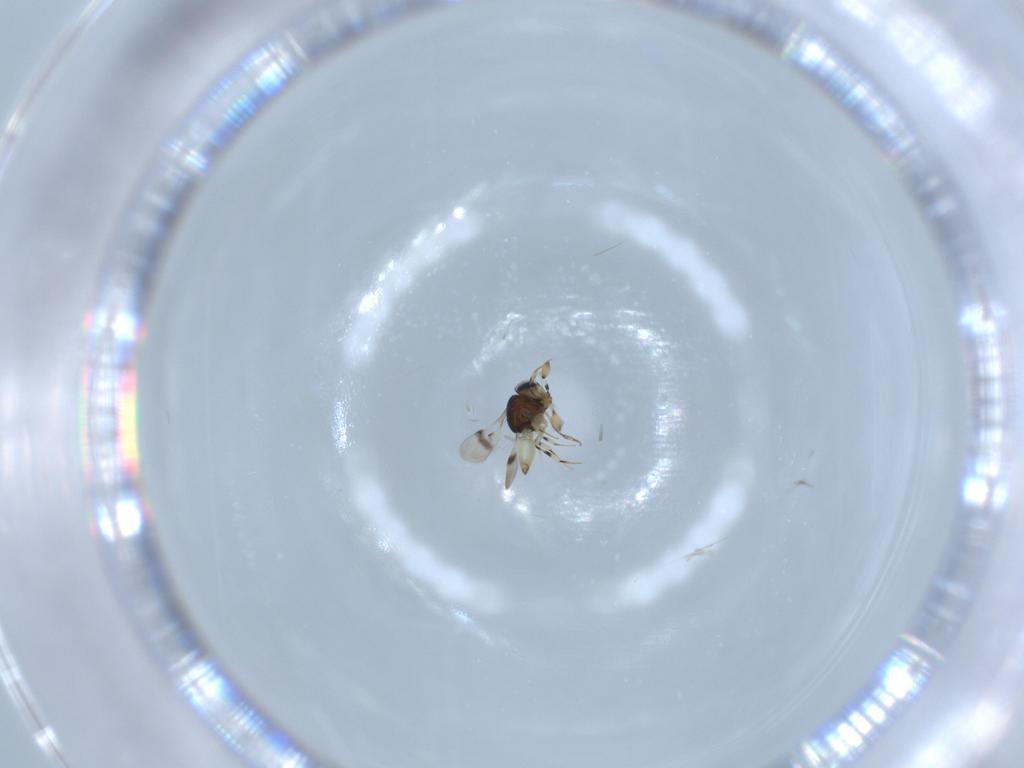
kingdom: Animalia
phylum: Arthropoda
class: Insecta
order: Hymenoptera
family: Scelionidae
